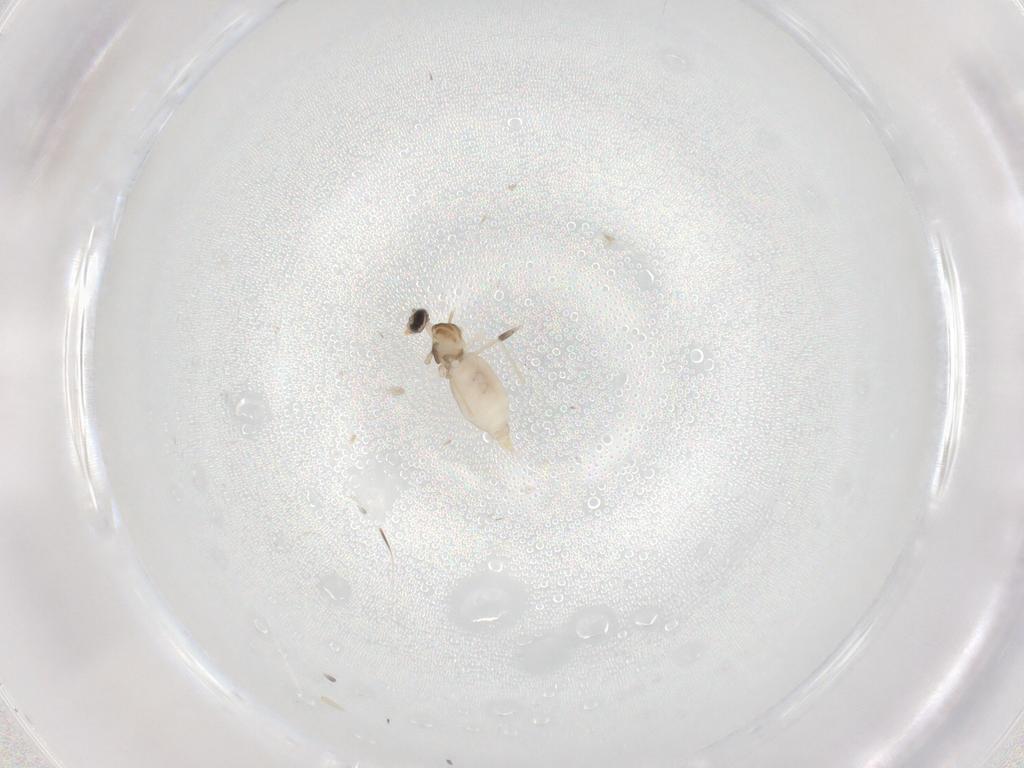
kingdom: Animalia
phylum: Arthropoda
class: Insecta
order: Diptera
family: Cecidomyiidae
